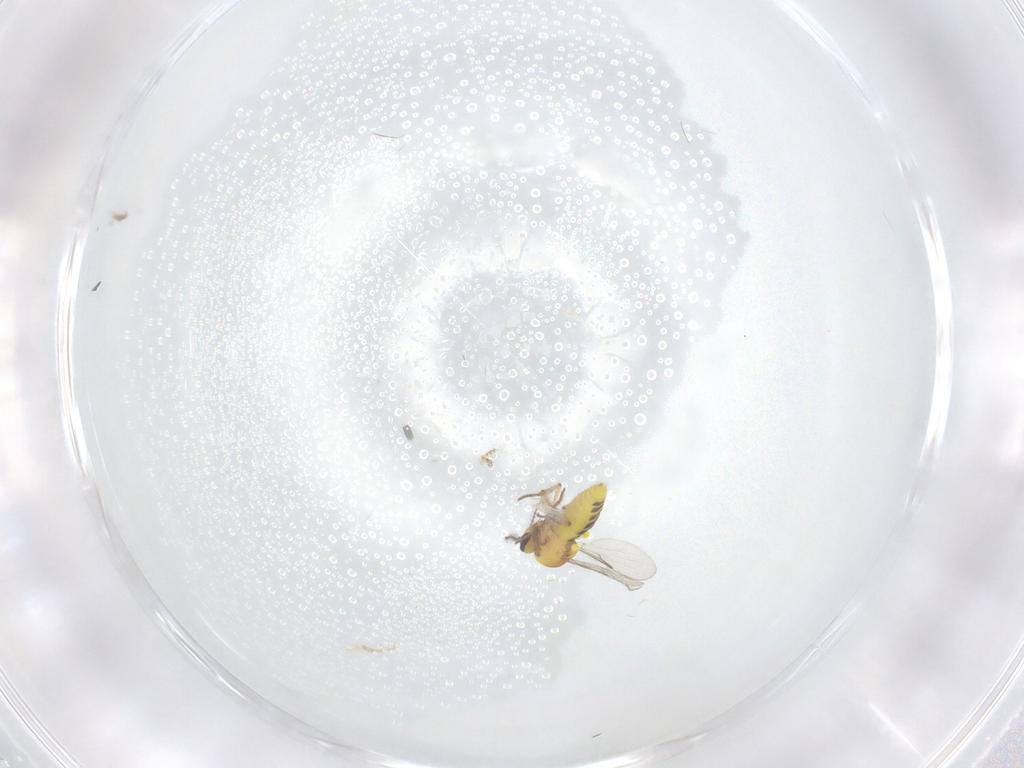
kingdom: Animalia
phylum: Arthropoda
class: Insecta
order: Diptera
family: Ceratopogonidae
